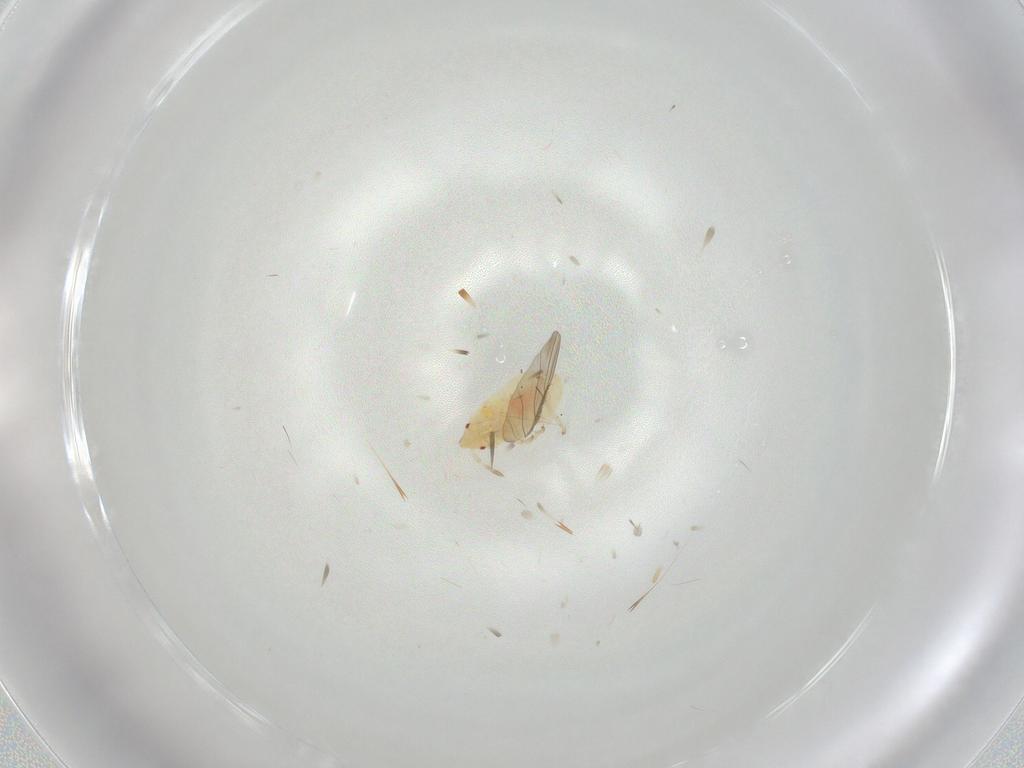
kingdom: Animalia
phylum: Arthropoda
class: Insecta
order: Hemiptera
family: Anthocoridae
